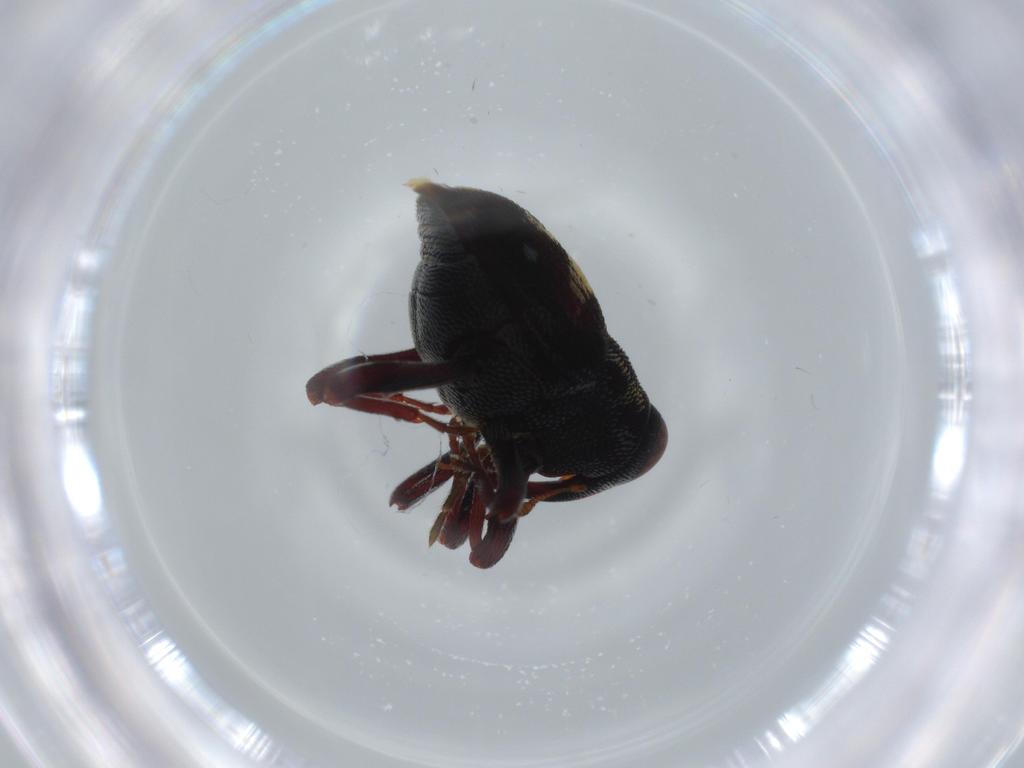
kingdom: Animalia
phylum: Arthropoda
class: Insecta
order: Coleoptera
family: Chrysomelidae
